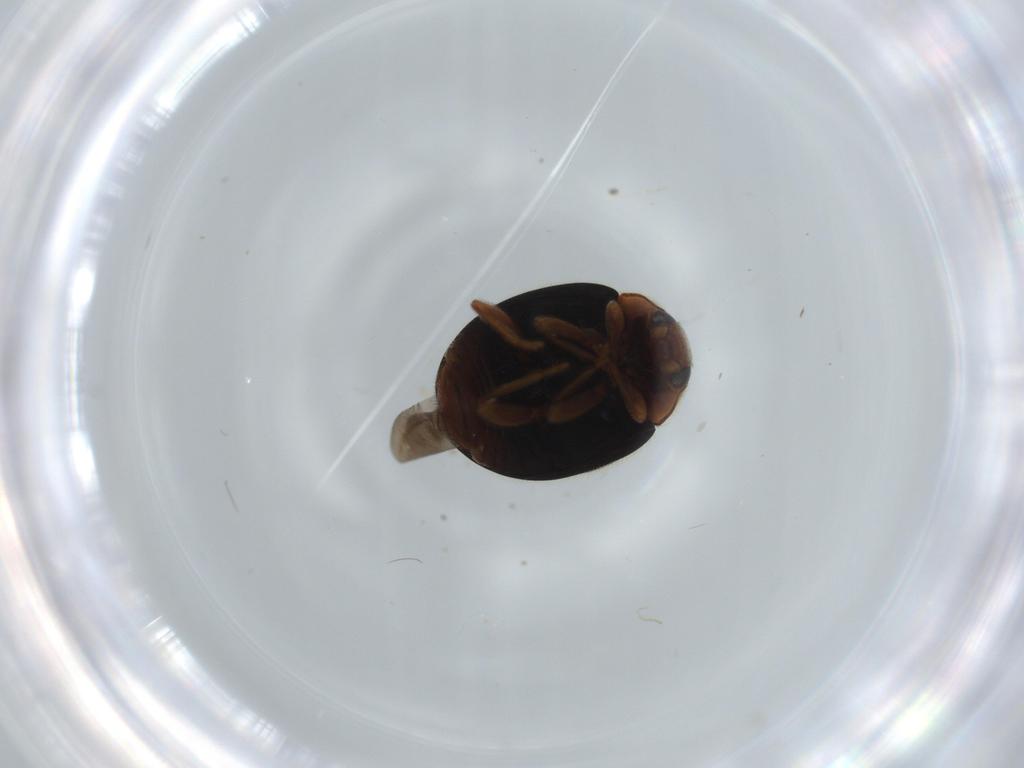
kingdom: Animalia
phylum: Arthropoda
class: Insecta
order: Coleoptera
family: Coccinellidae
